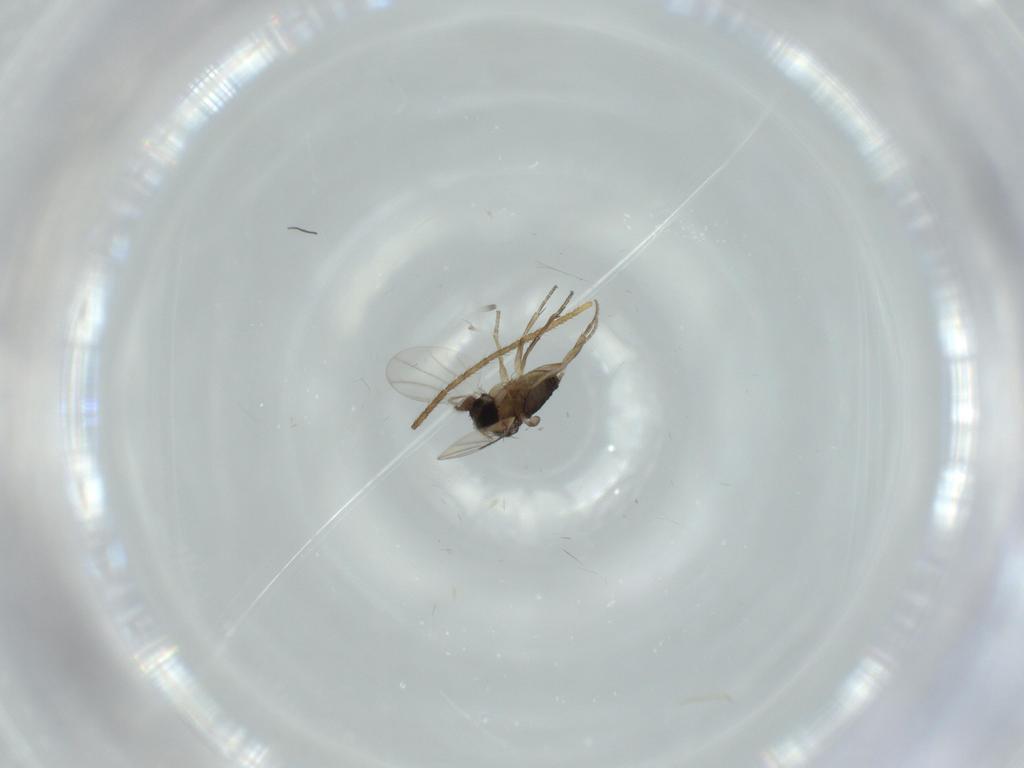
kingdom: Animalia
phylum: Arthropoda
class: Insecta
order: Diptera
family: Phoridae
